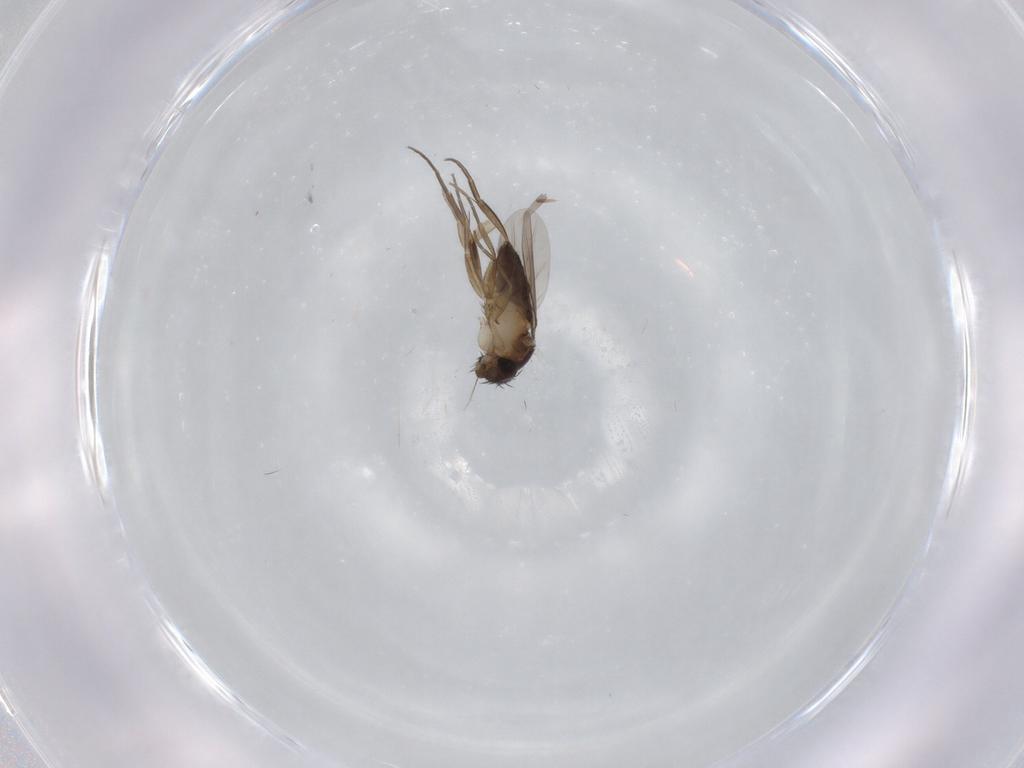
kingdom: Animalia
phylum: Arthropoda
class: Insecta
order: Diptera
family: Phoridae
